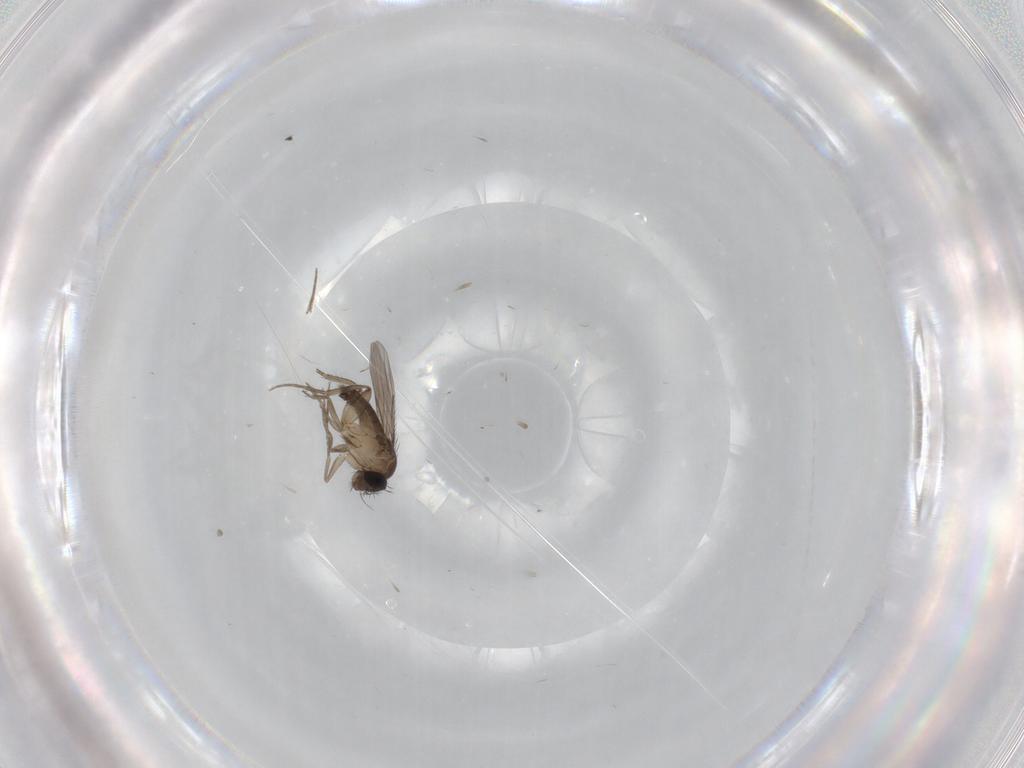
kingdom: Animalia
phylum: Arthropoda
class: Insecta
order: Diptera
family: Phoridae
